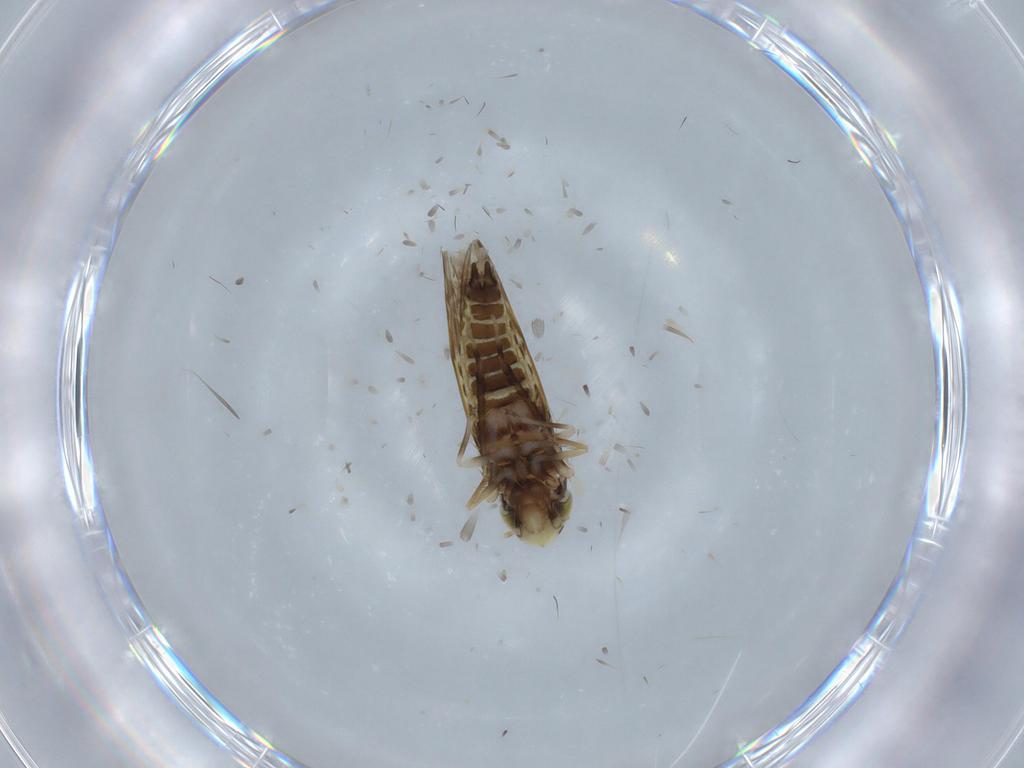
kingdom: Animalia
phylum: Arthropoda
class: Insecta
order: Hemiptera
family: Cicadellidae
